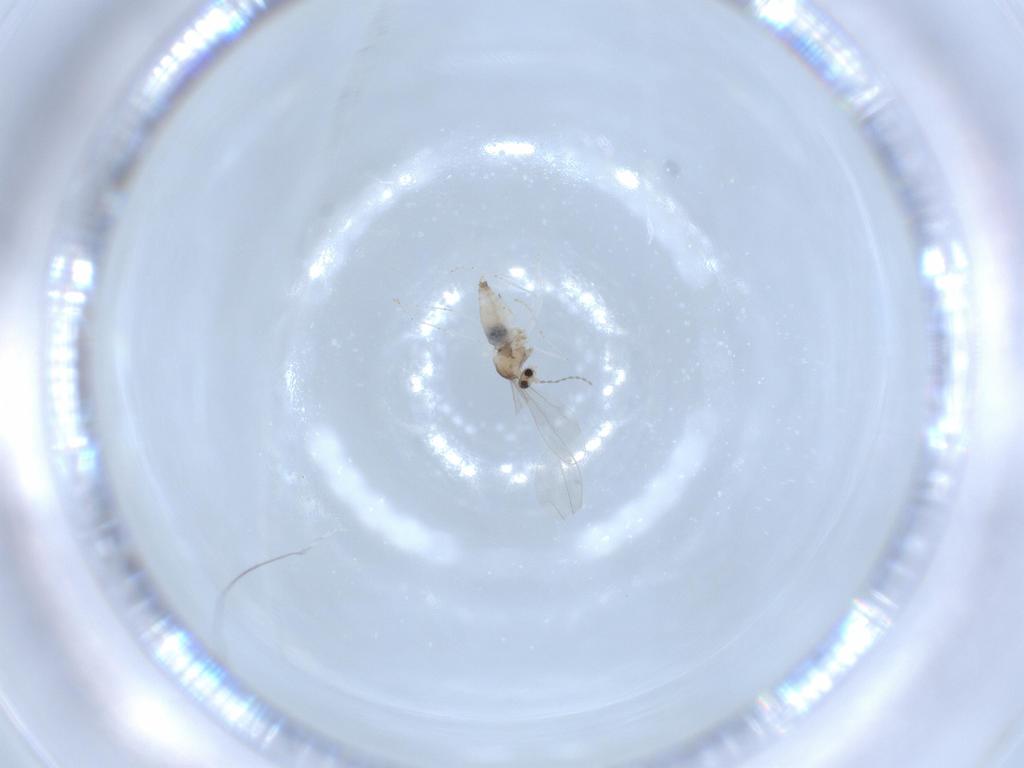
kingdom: Animalia
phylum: Arthropoda
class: Insecta
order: Diptera
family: Cecidomyiidae
